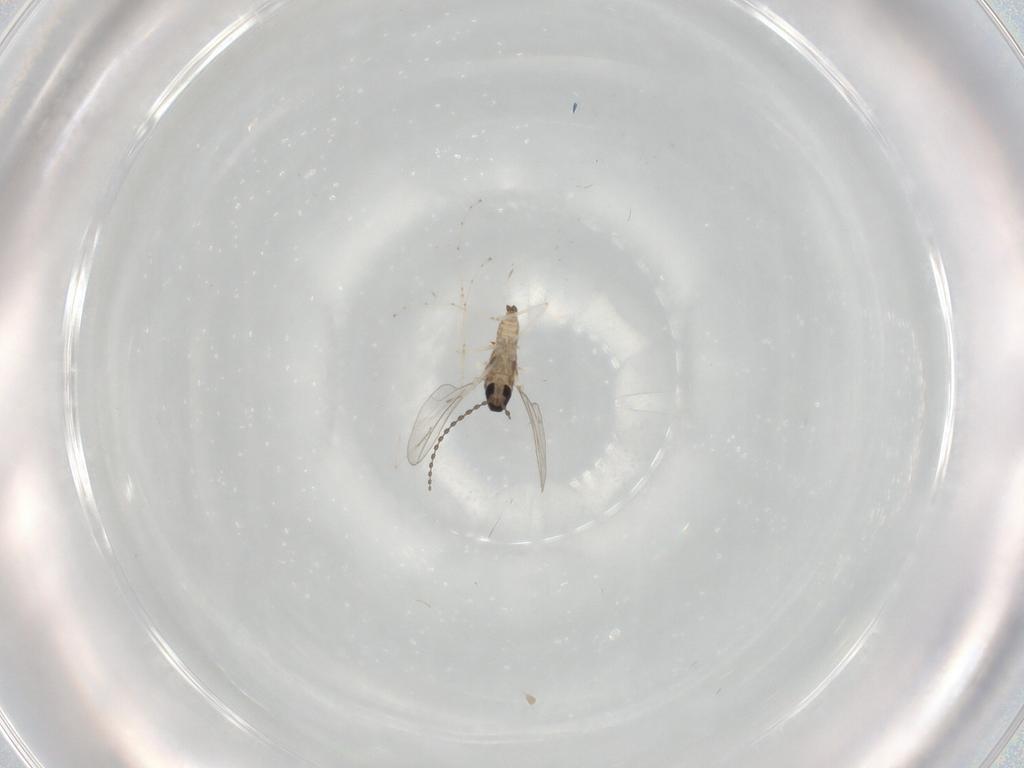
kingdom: Animalia
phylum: Arthropoda
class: Insecta
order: Diptera
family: Cecidomyiidae
